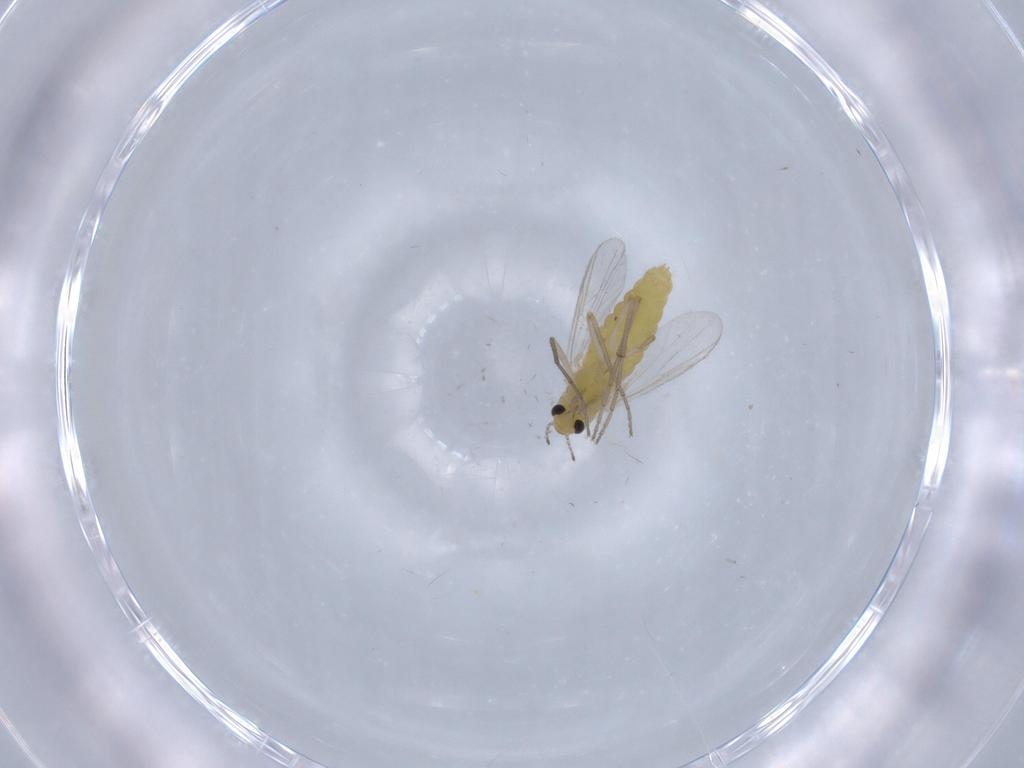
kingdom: Animalia
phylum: Arthropoda
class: Insecta
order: Diptera
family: Chironomidae
